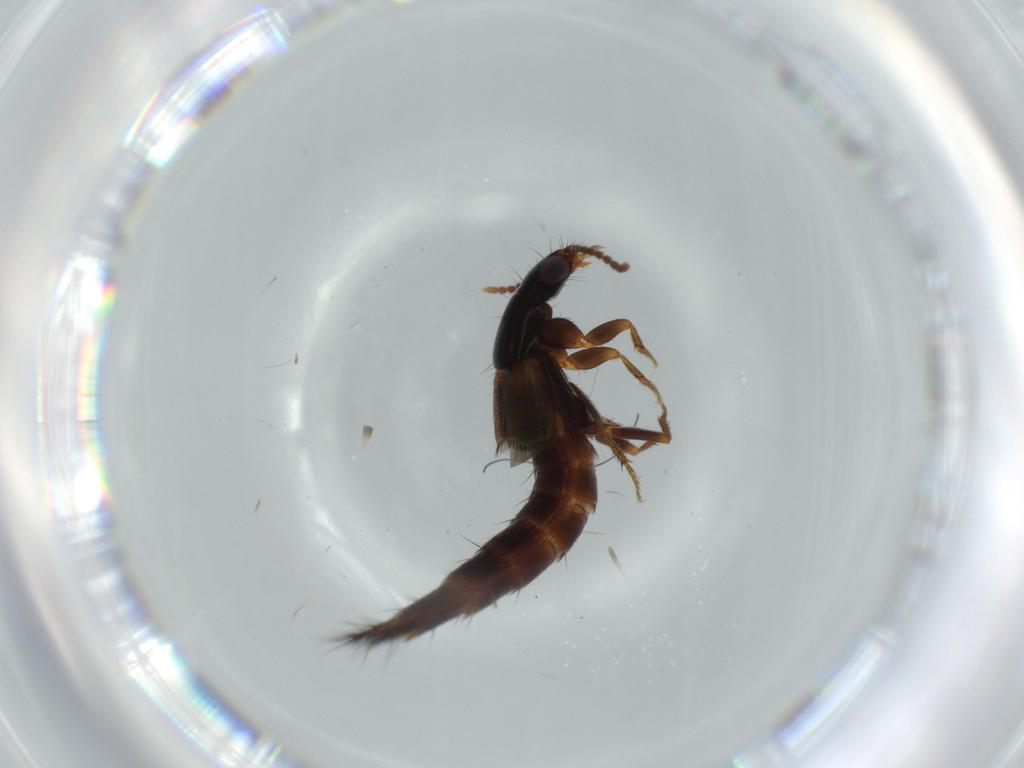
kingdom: Animalia
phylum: Arthropoda
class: Insecta
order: Coleoptera
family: Staphylinidae
